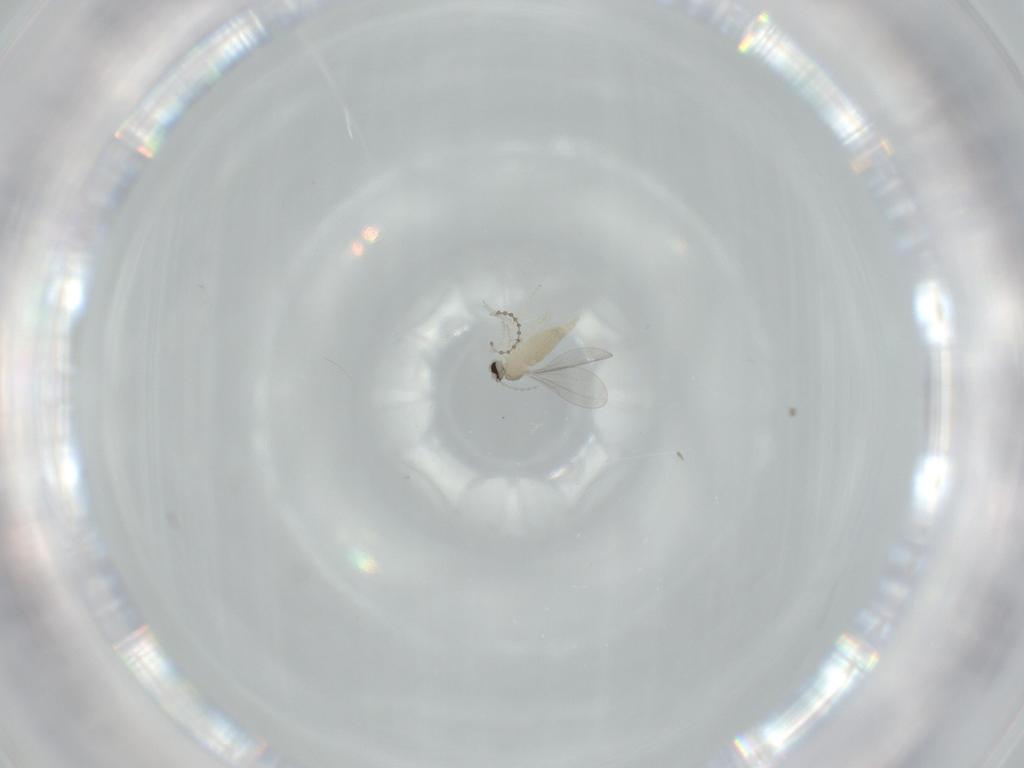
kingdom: Animalia
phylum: Arthropoda
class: Insecta
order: Diptera
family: Cecidomyiidae
